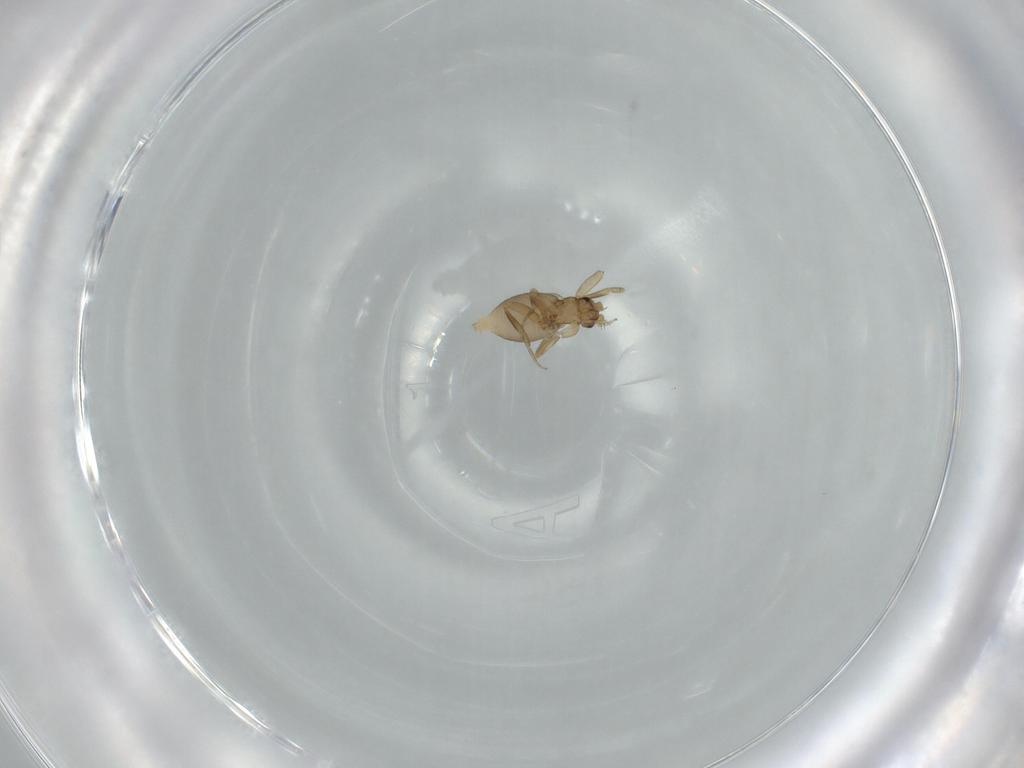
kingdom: Animalia
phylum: Arthropoda
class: Insecta
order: Diptera
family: Phoridae
